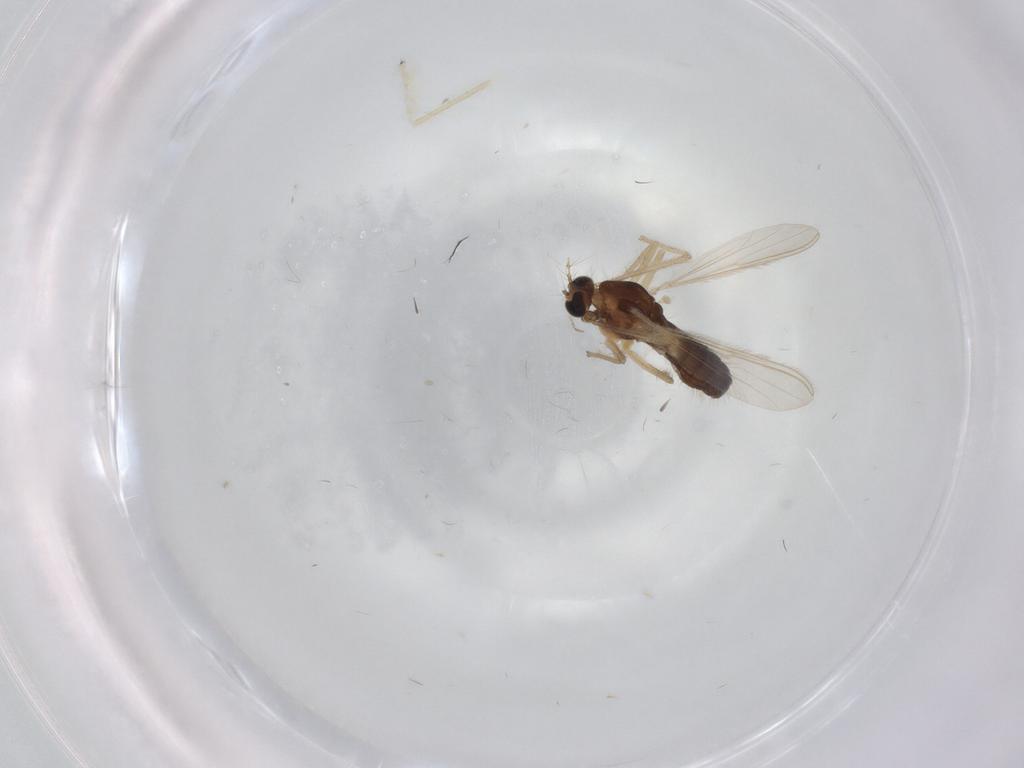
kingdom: Animalia
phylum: Arthropoda
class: Insecta
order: Diptera
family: Chironomidae
